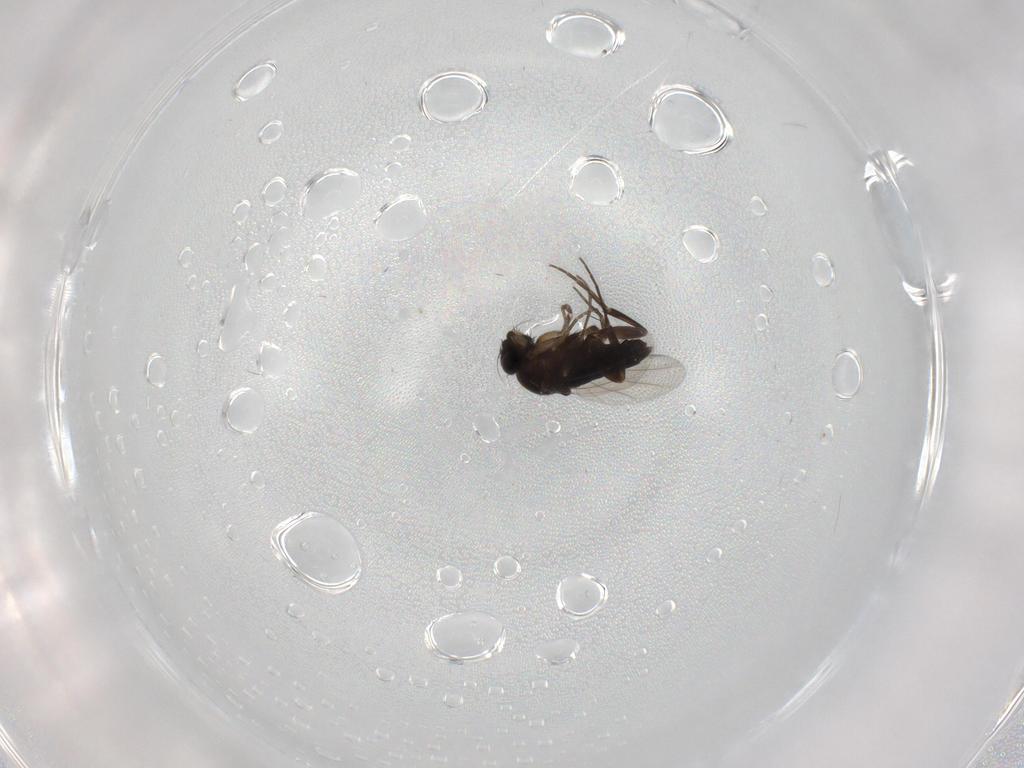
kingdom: Animalia
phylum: Arthropoda
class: Insecta
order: Diptera
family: Phoridae
